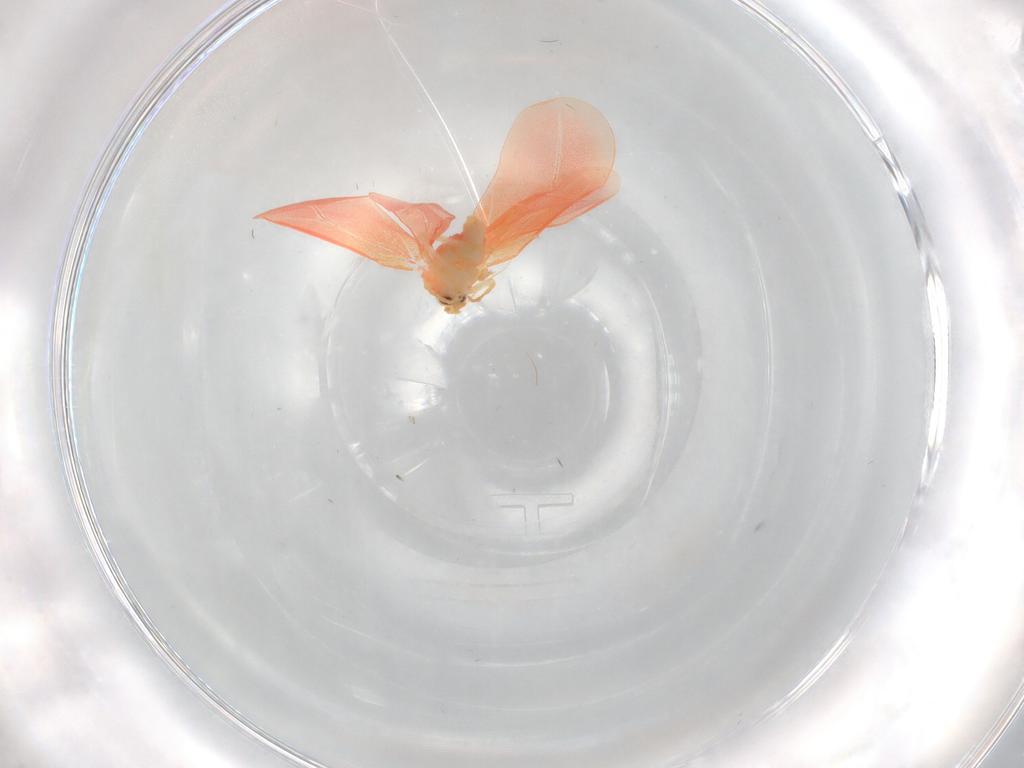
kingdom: Animalia
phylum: Arthropoda
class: Insecta
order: Hemiptera
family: Aleyrodidae
